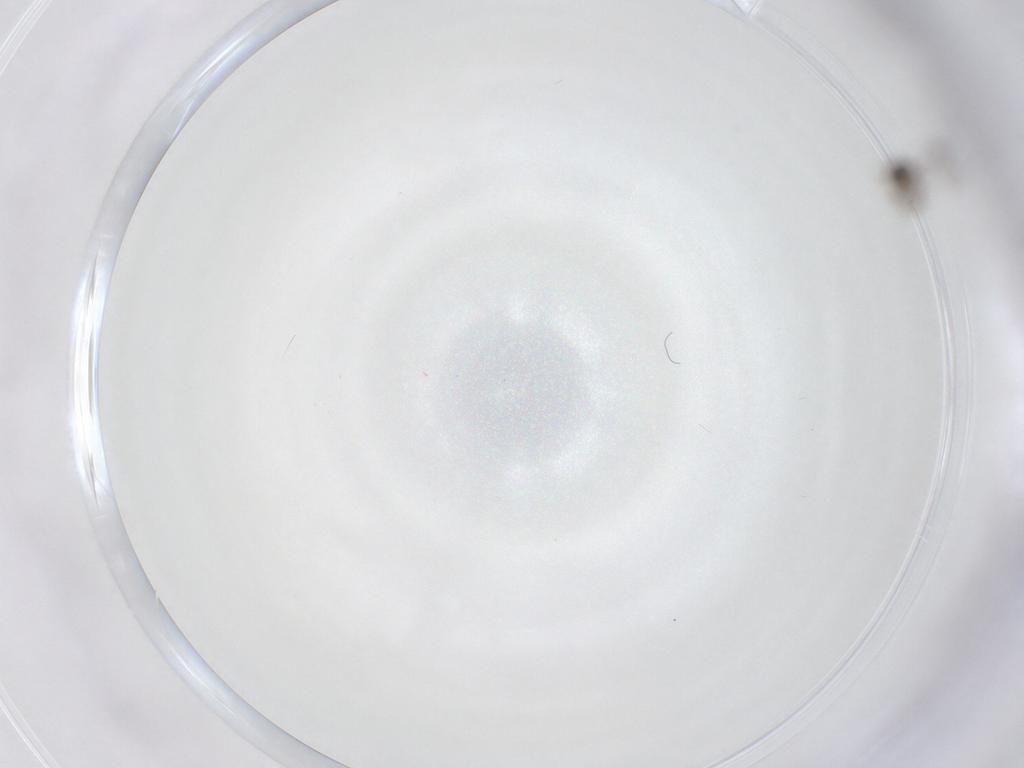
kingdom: Animalia
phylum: Arthropoda
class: Insecta
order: Diptera
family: Cecidomyiidae
